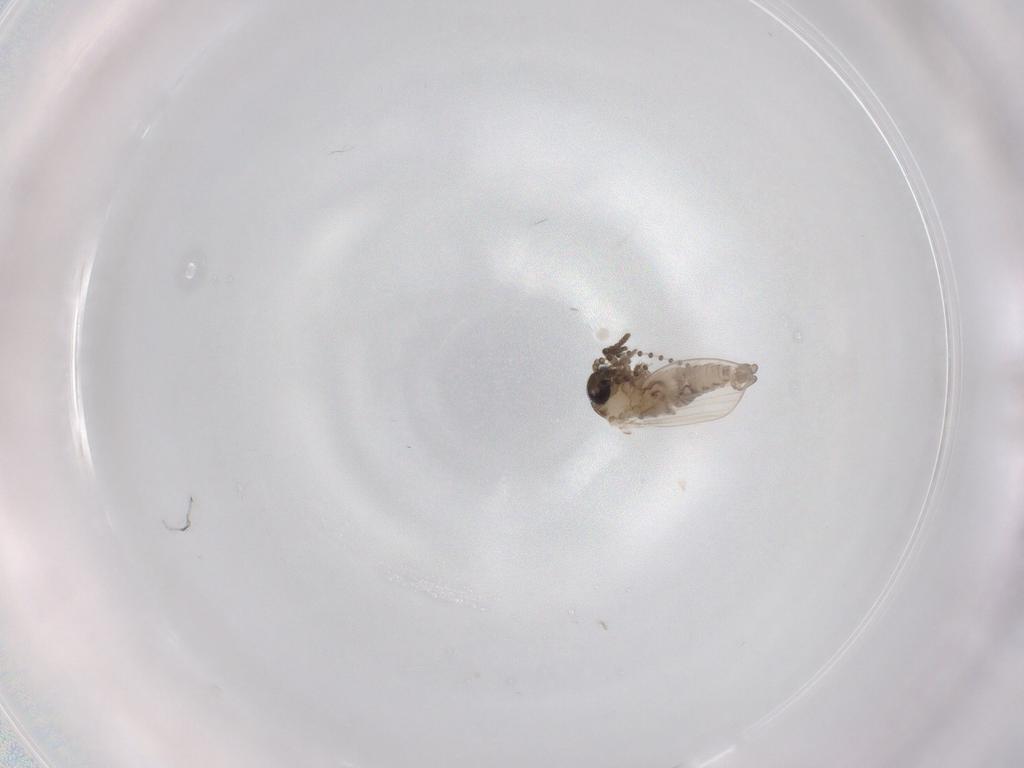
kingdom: Animalia
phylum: Arthropoda
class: Insecta
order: Diptera
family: Psychodidae
